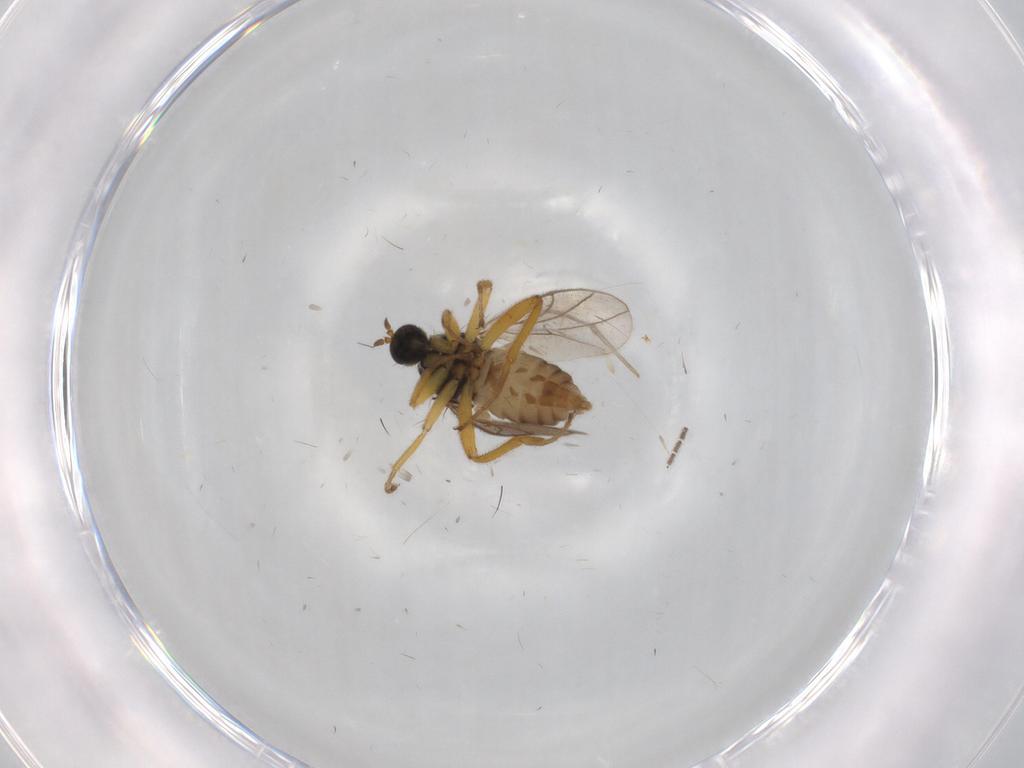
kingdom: Animalia
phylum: Arthropoda
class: Insecta
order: Diptera
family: Hybotidae
